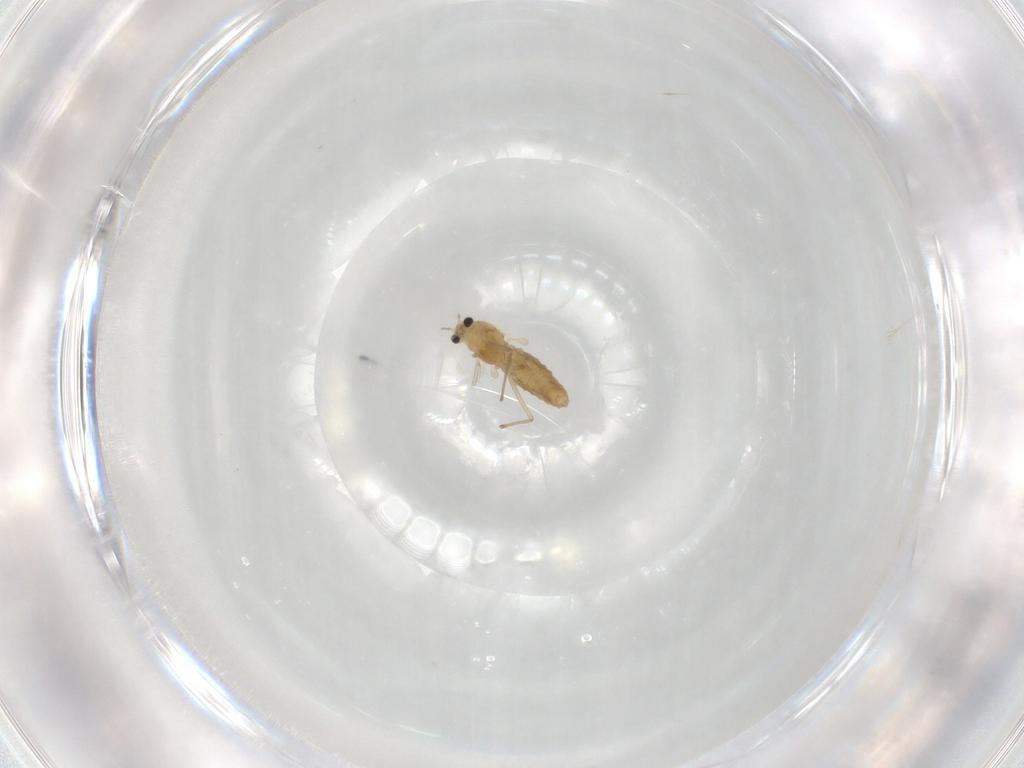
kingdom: Animalia
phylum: Arthropoda
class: Insecta
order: Diptera
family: Chironomidae
